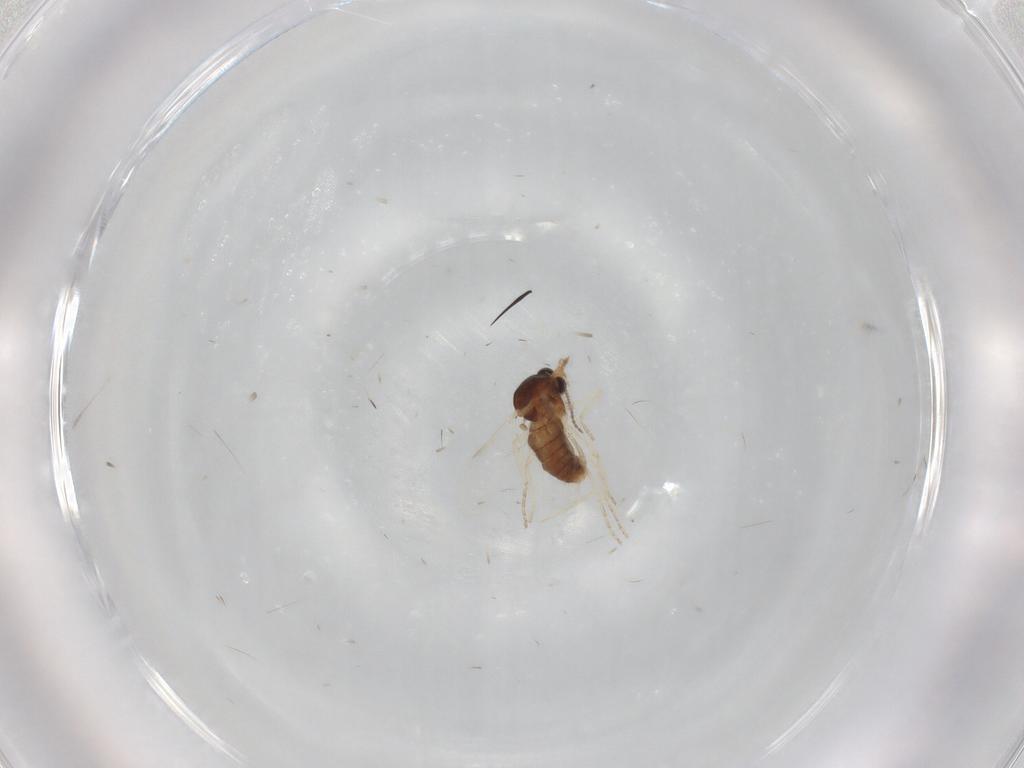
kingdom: Animalia
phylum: Arthropoda
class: Insecta
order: Diptera
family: Ceratopogonidae
